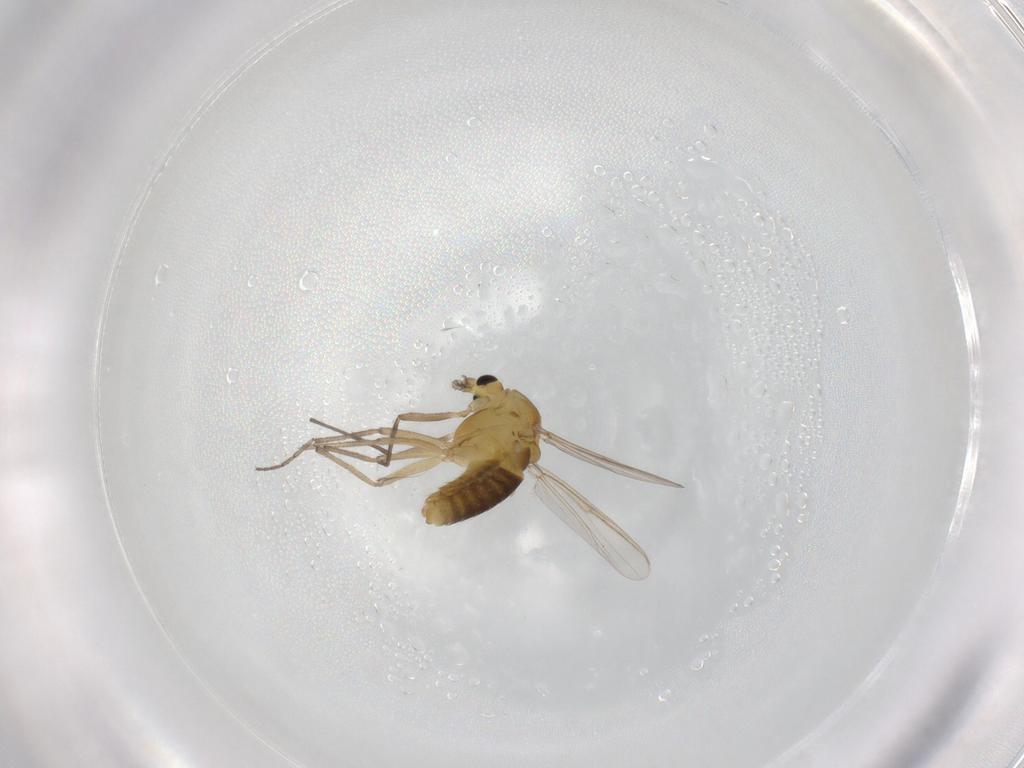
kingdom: Animalia
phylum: Arthropoda
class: Insecta
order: Diptera
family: Chironomidae
